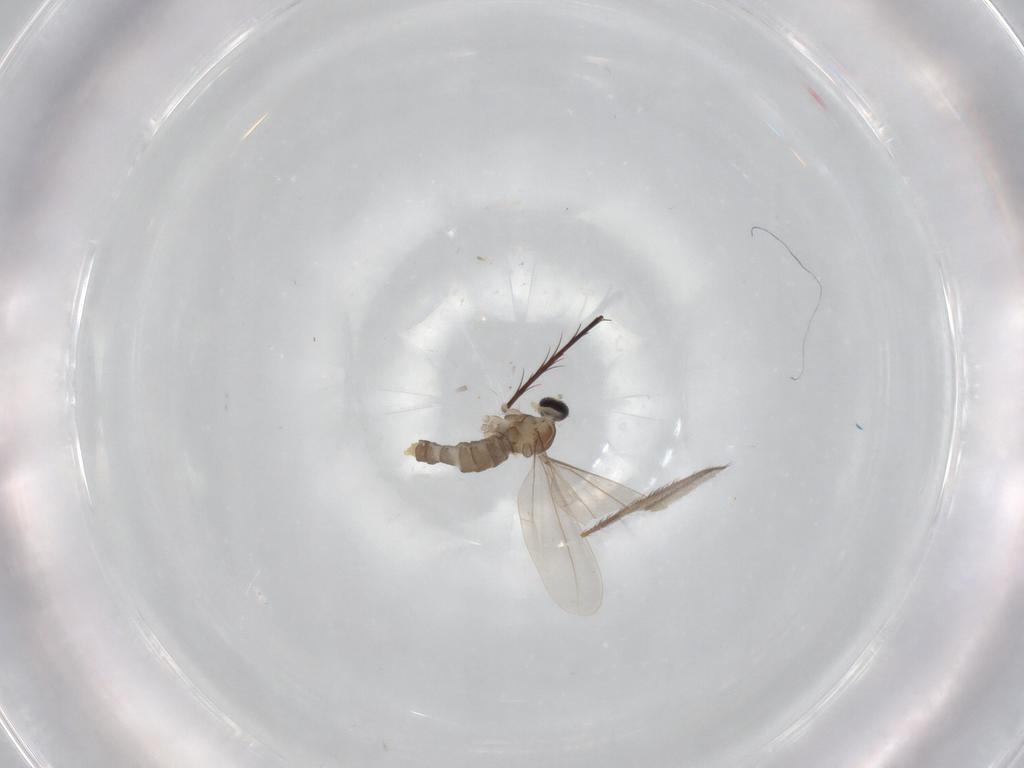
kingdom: Animalia
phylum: Arthropoda
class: Insecta
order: Diptera
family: Cecidomyiidae
